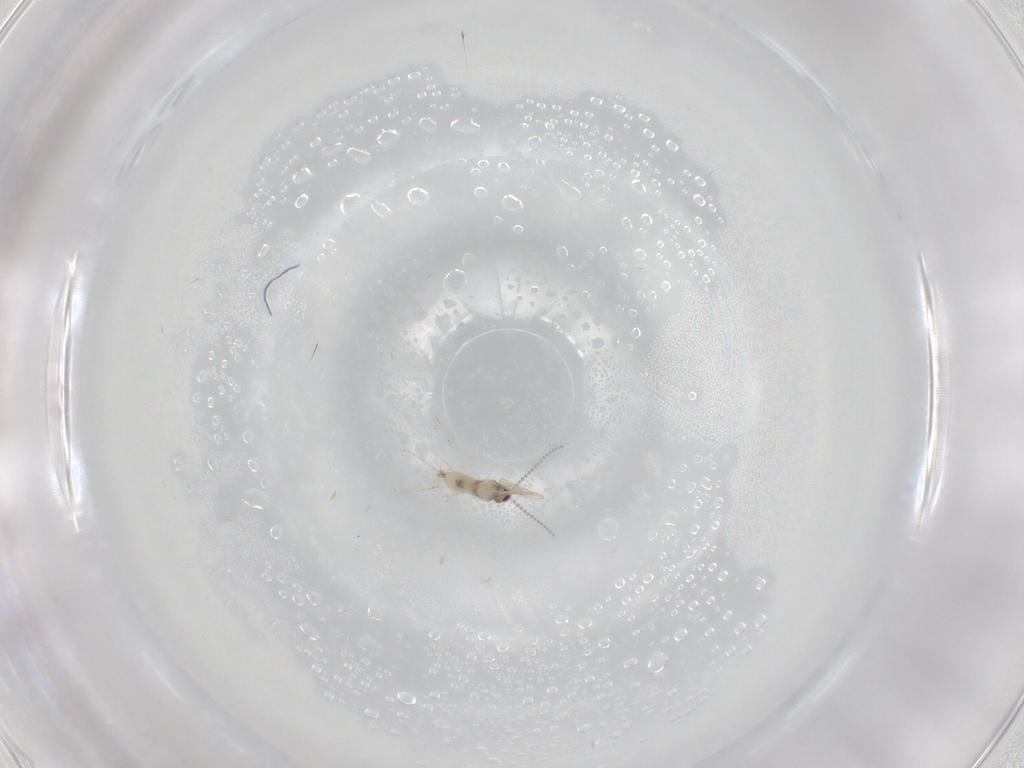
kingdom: Animalia
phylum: Arthropoda
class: Insecta
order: Diptera
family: Cecidomyiidae
